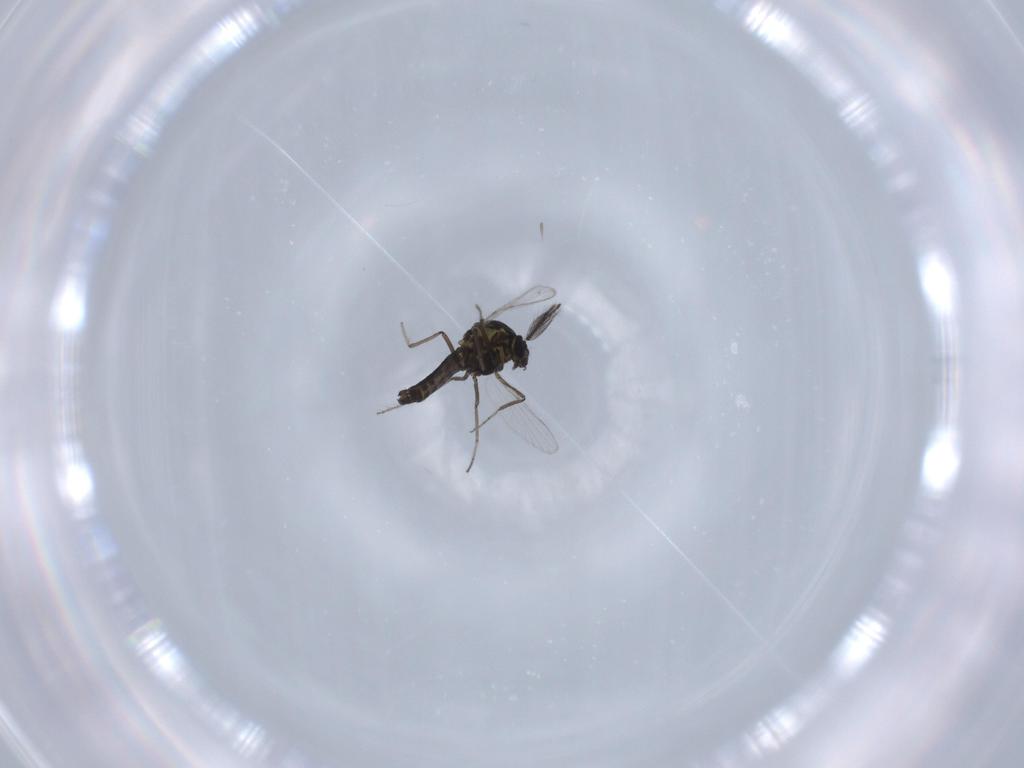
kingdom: Animalia
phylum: Arthropoda
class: Insecta
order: Diptera
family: Ceratopogonidae
